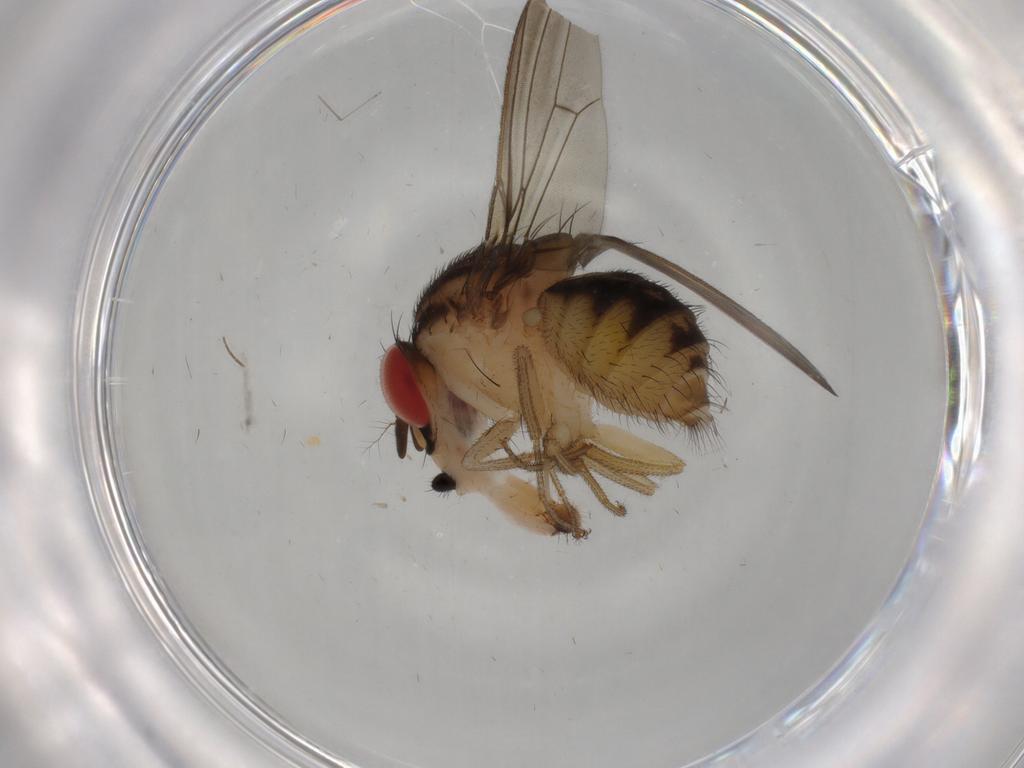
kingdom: Animalia
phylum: Arthropoda
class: Insecta
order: Diptera
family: Drosophilidae
